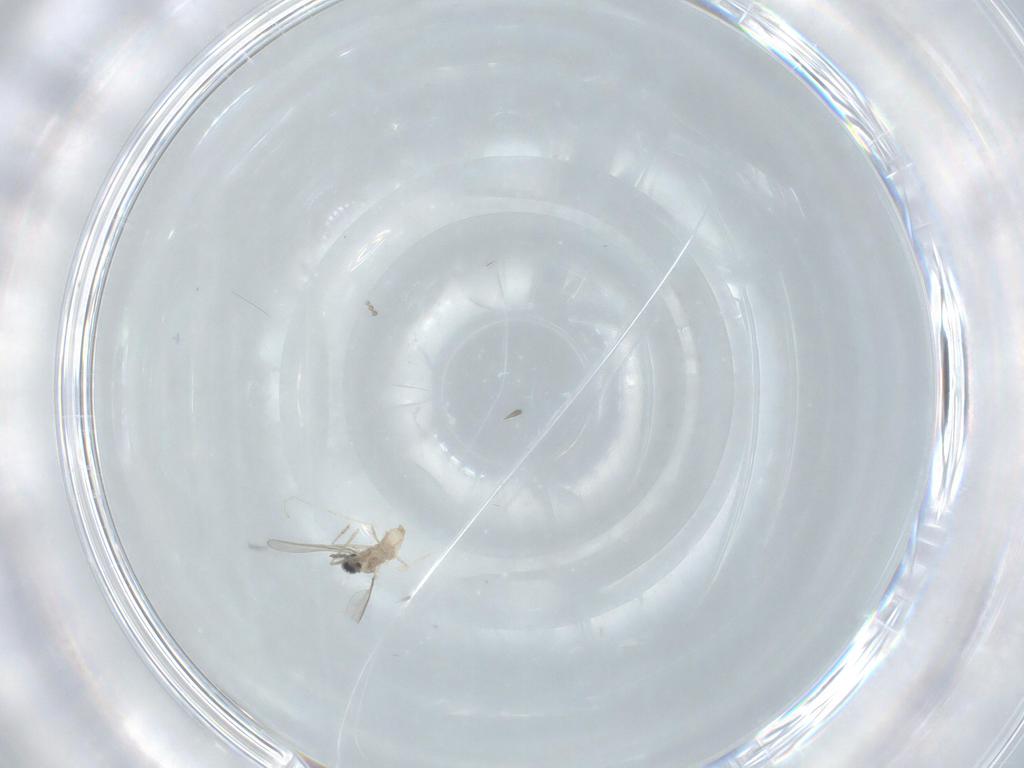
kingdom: Animalia
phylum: Arthropoda
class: Insecta
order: Diptera
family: Cecidomyiidae
